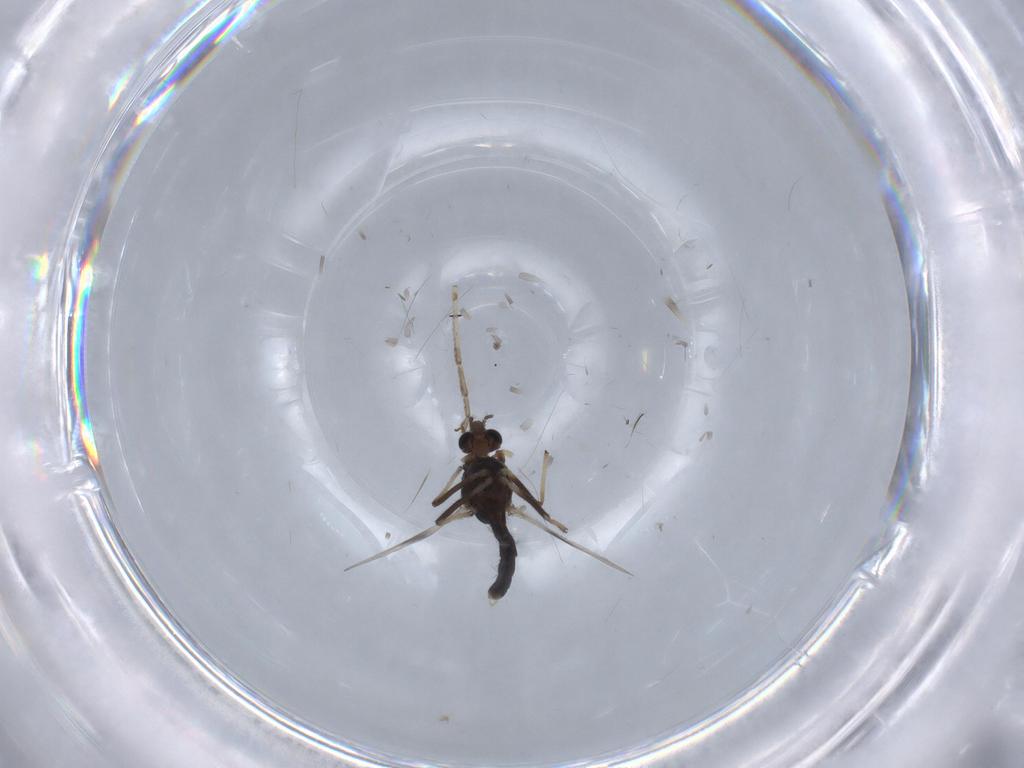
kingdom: Animalia
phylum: Arthropoda
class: Insecta
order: Diptera
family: Chironomidae
